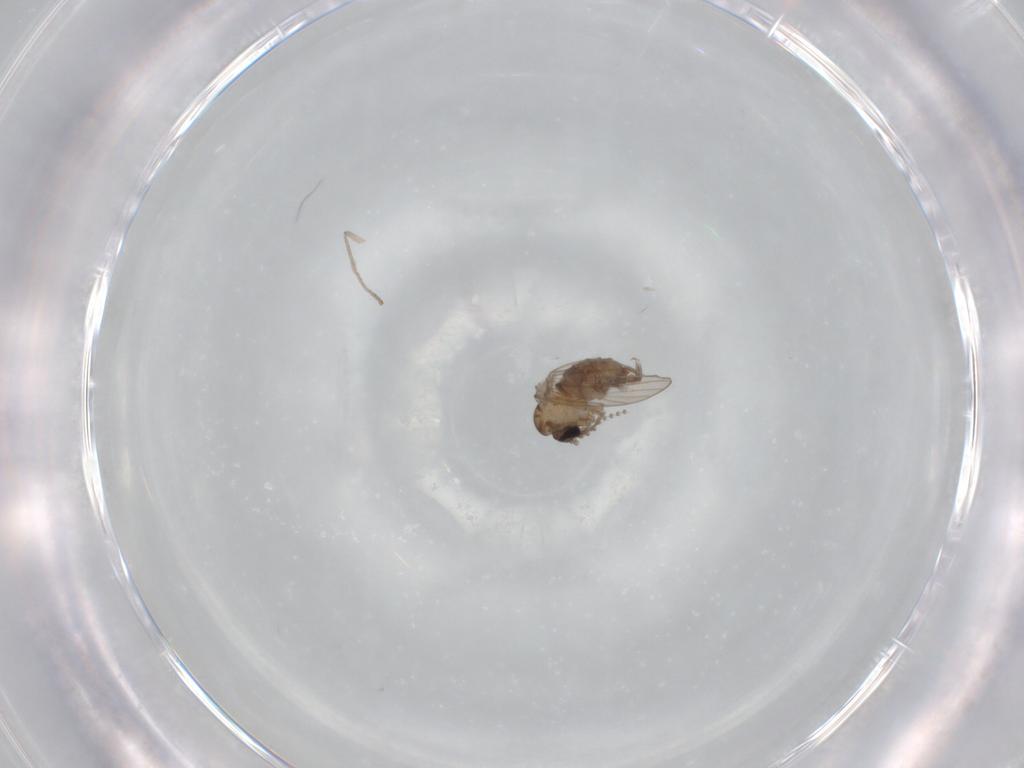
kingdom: Animalia
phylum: Arthropoda
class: Insecta
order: Diptera
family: Psychodidae
